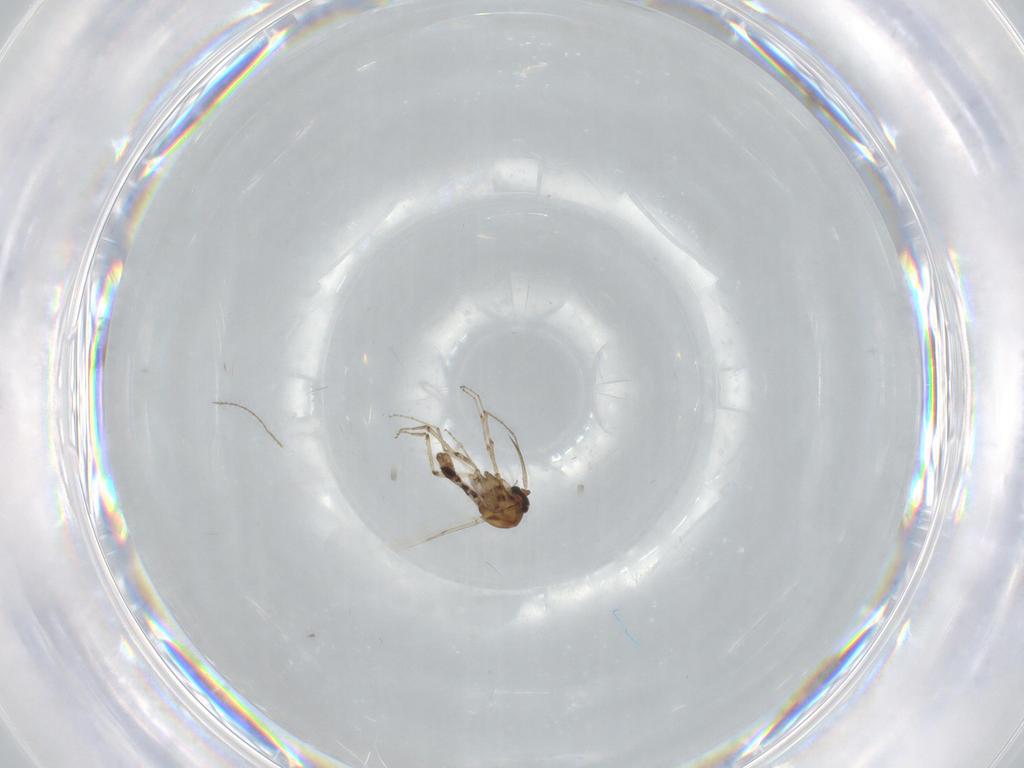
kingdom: Animalia
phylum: Arthropoda
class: Insecta
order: Diptera
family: Ceratopogonidae
